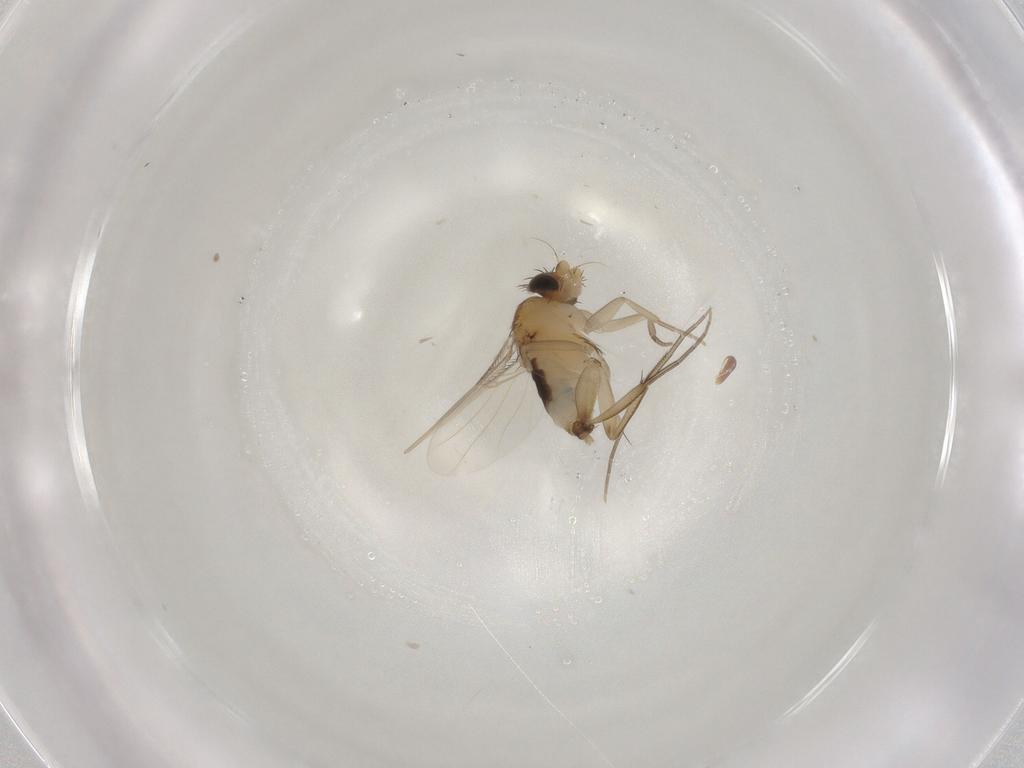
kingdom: Animalia
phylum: Arthropoda
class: Insecta
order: Diptera
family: Phoridae
